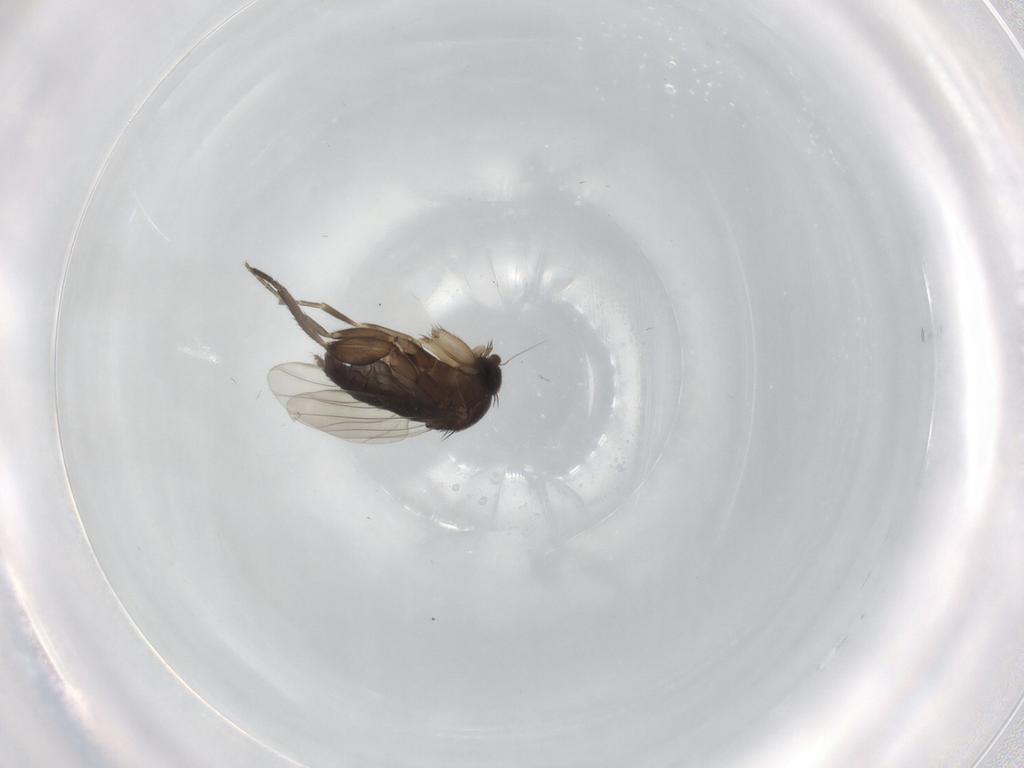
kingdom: Animalia
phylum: Arthropoda
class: Insecta
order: Diptera
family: Phoridae
